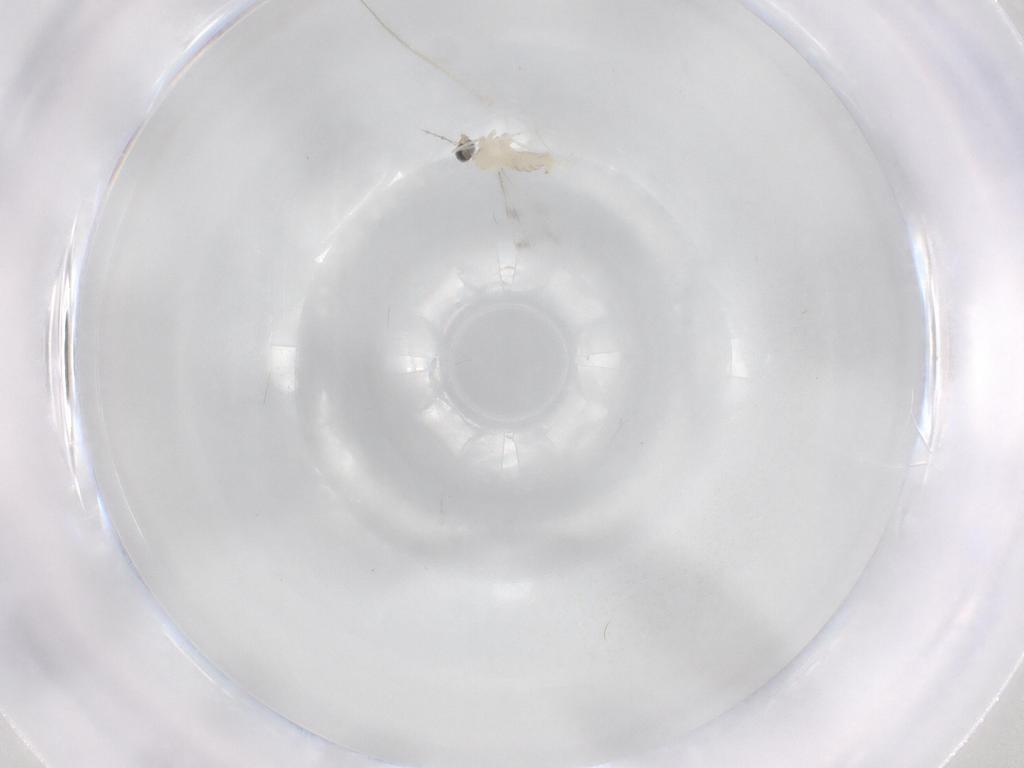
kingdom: Animalia
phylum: Arthropoda
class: Insecta
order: Diptera
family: Cecidomyiidae
